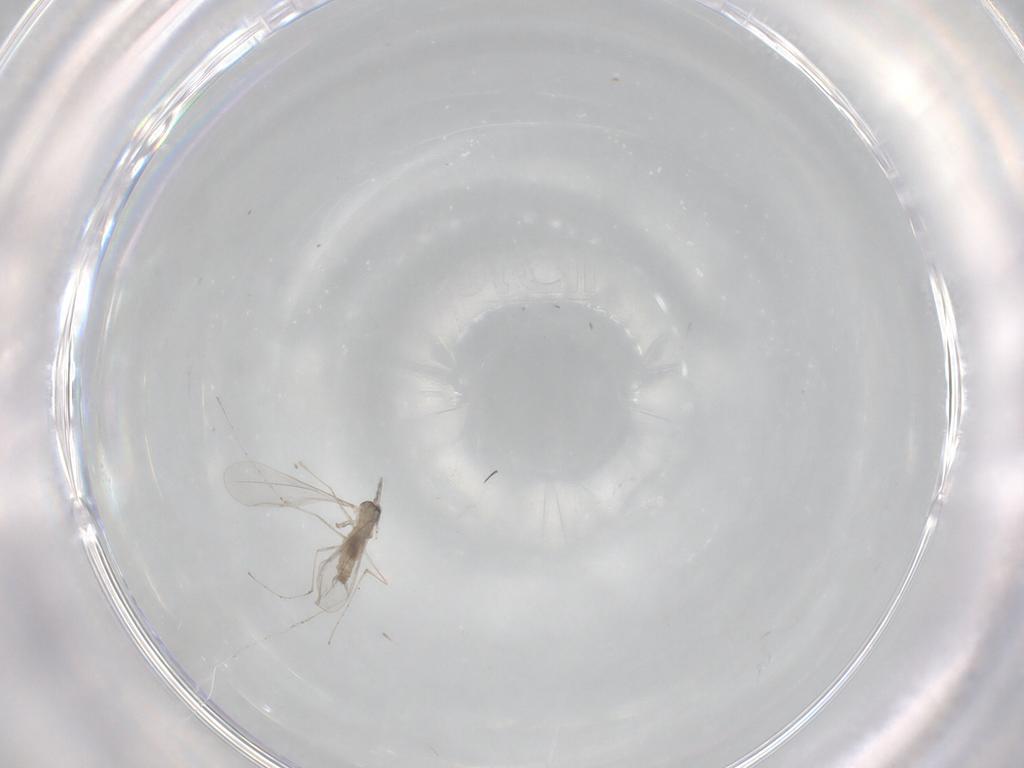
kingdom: Animalia
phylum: Arthropoda
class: Insecta
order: Diptera
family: Cecidomyiidae
